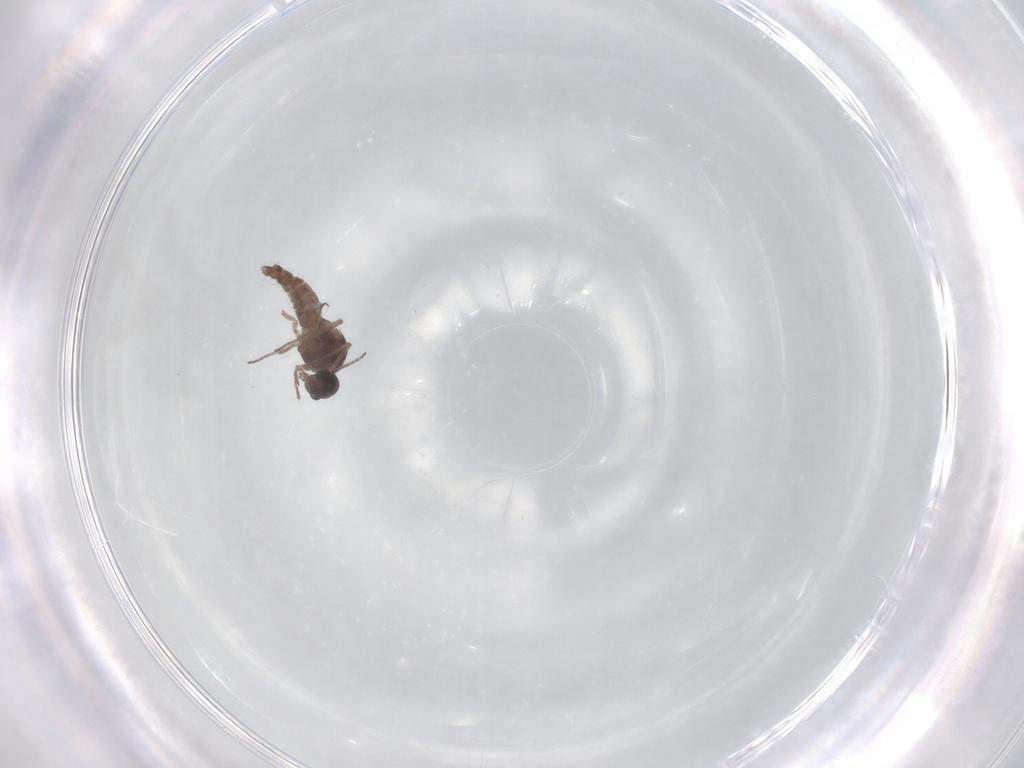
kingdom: Animalia
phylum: Arthropoda
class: Insecta
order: Diptera
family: Ceratopogonidae
